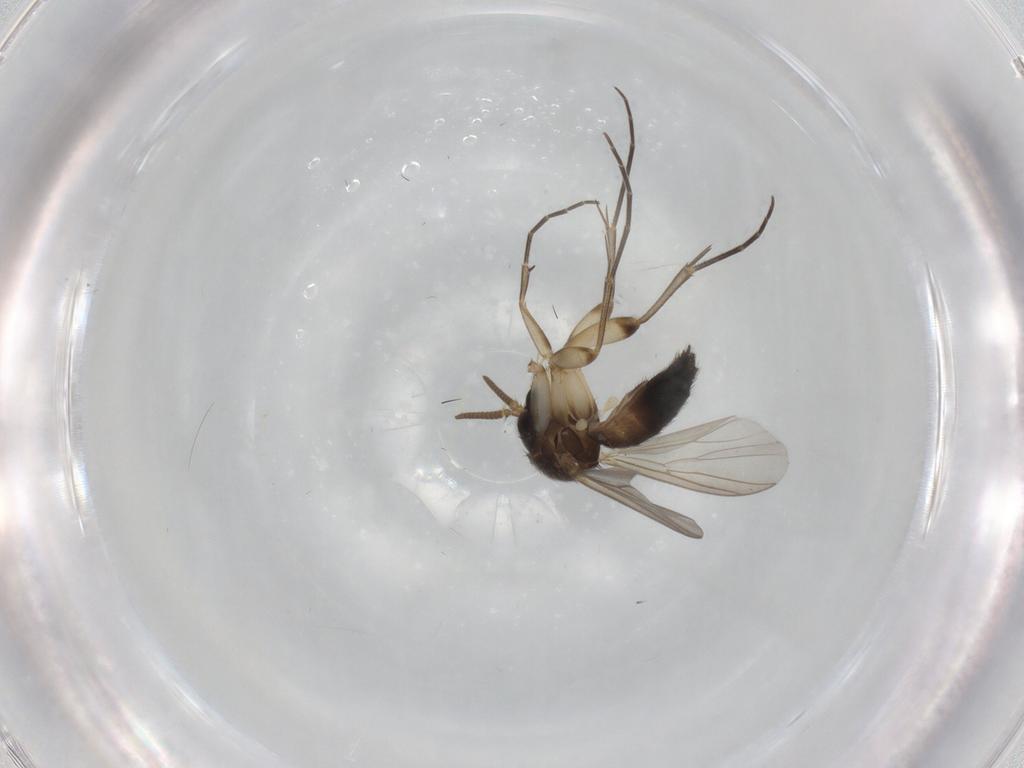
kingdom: Animalia
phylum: Arthropoda
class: Insecta
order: Diptera
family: Mycetophilidae
